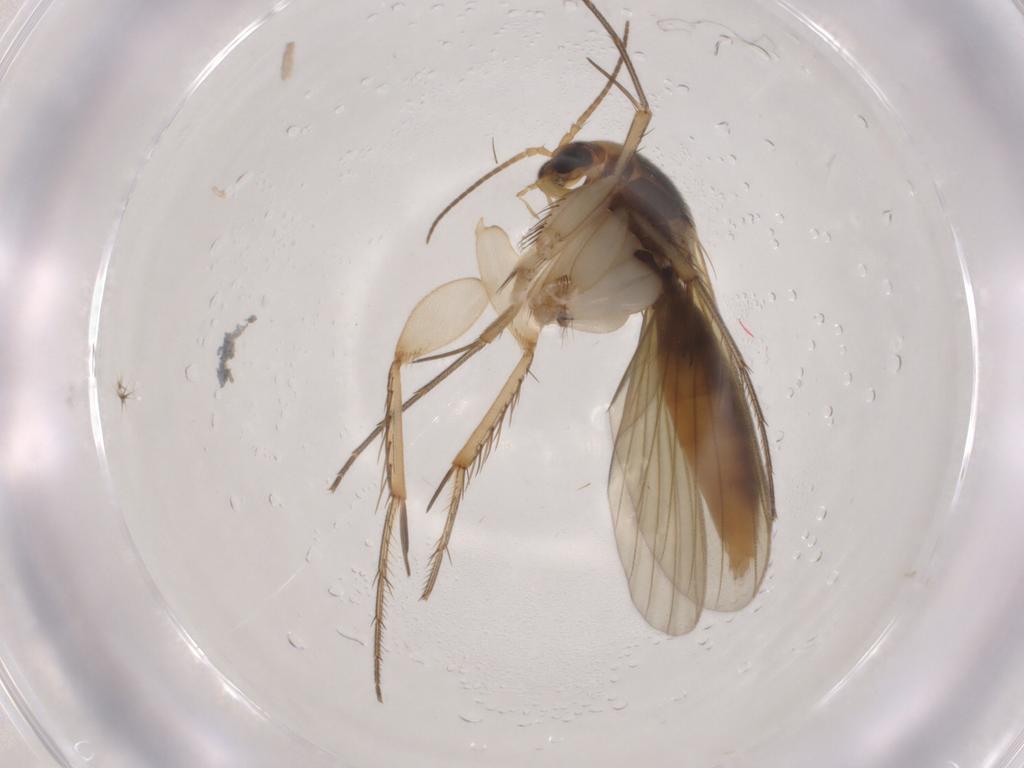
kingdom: Animalia
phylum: Arthropoda
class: Insecta
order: Diptera
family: Mycetophilidae
